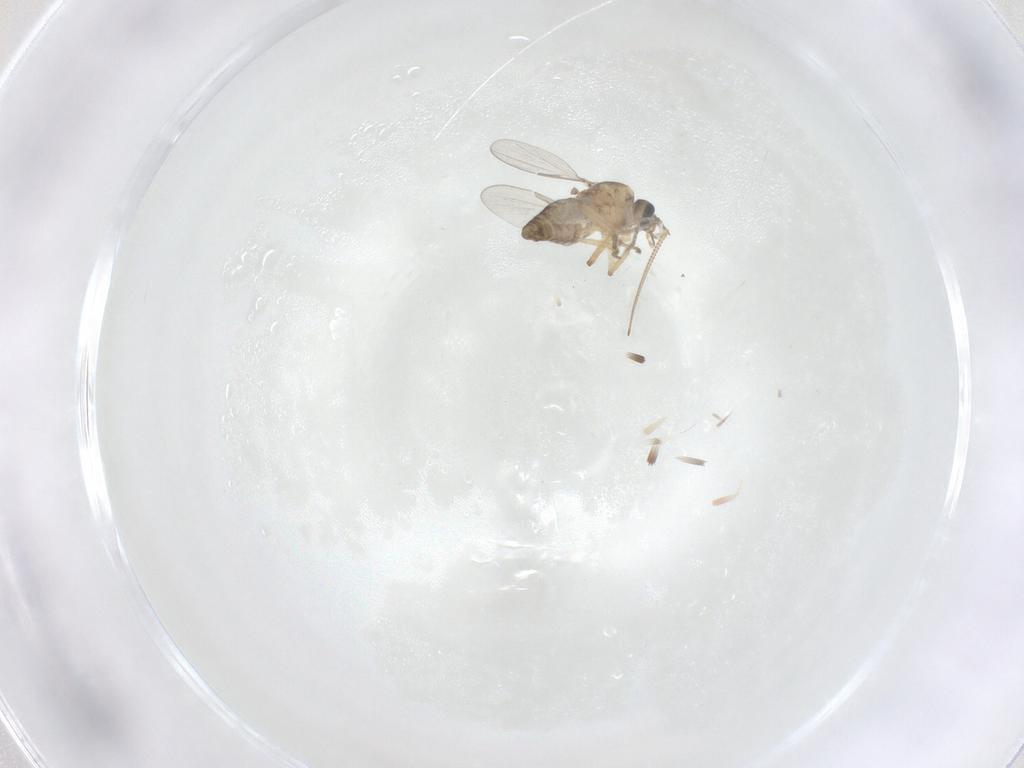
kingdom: Animalia
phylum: Arthropoda
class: Insecta
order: Diptera
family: Ceratopogonidae
